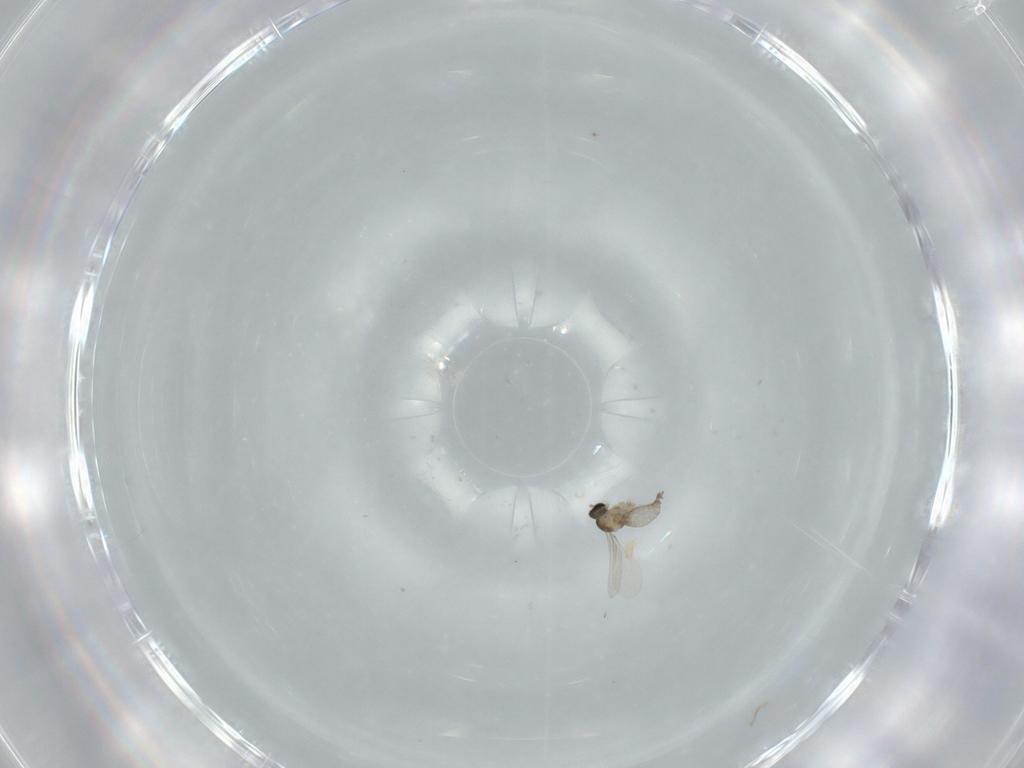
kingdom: Animalia
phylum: Arthropoda
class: Insecta
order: Diptera
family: Cecidomyiidae
